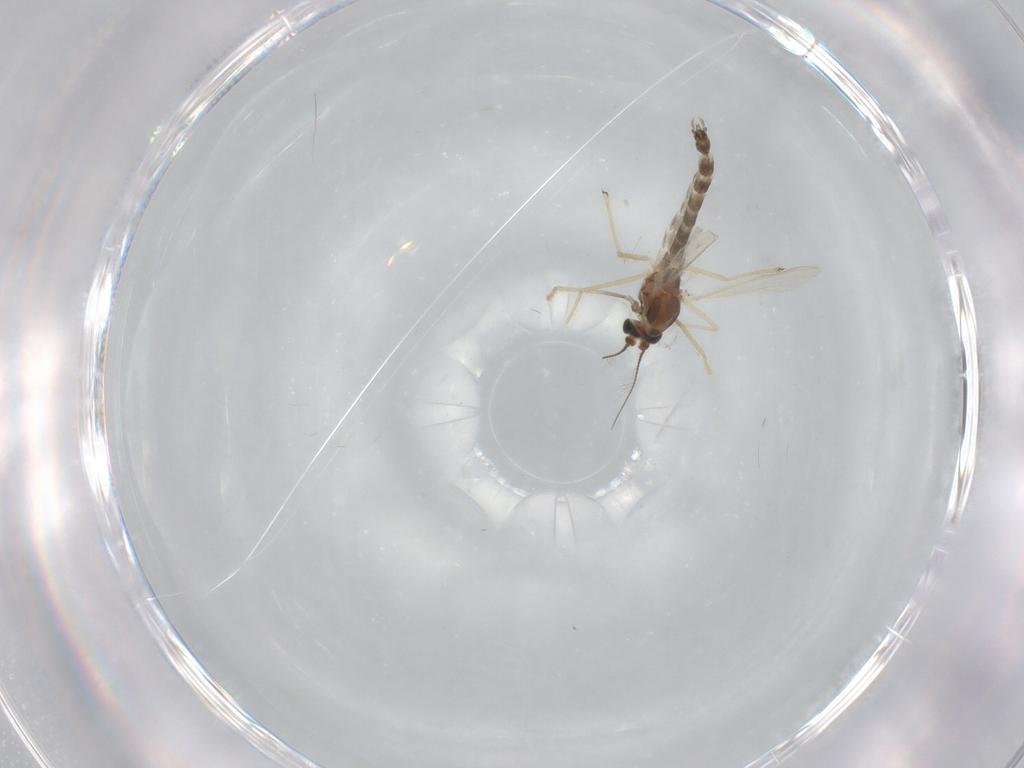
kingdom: Animalia
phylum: Arthropoda
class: Insecta
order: Diptera
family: Chironomidae
